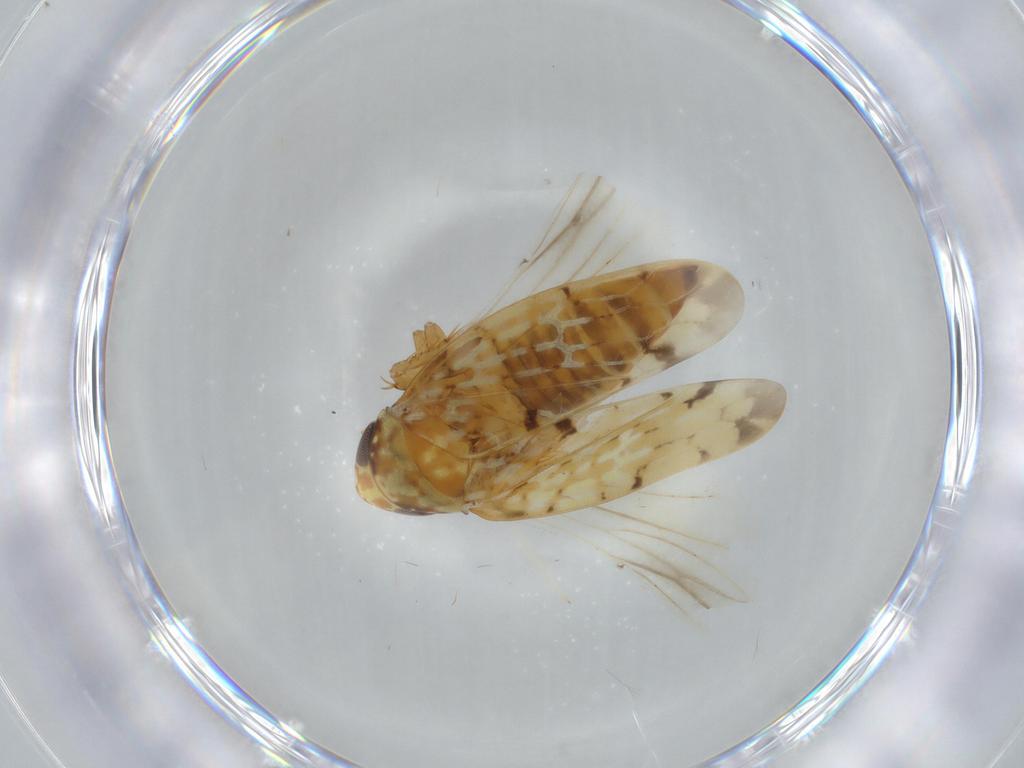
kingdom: Animalia
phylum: Arthropoda
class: Insecta
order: Hemiptera
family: Cicadellidae
